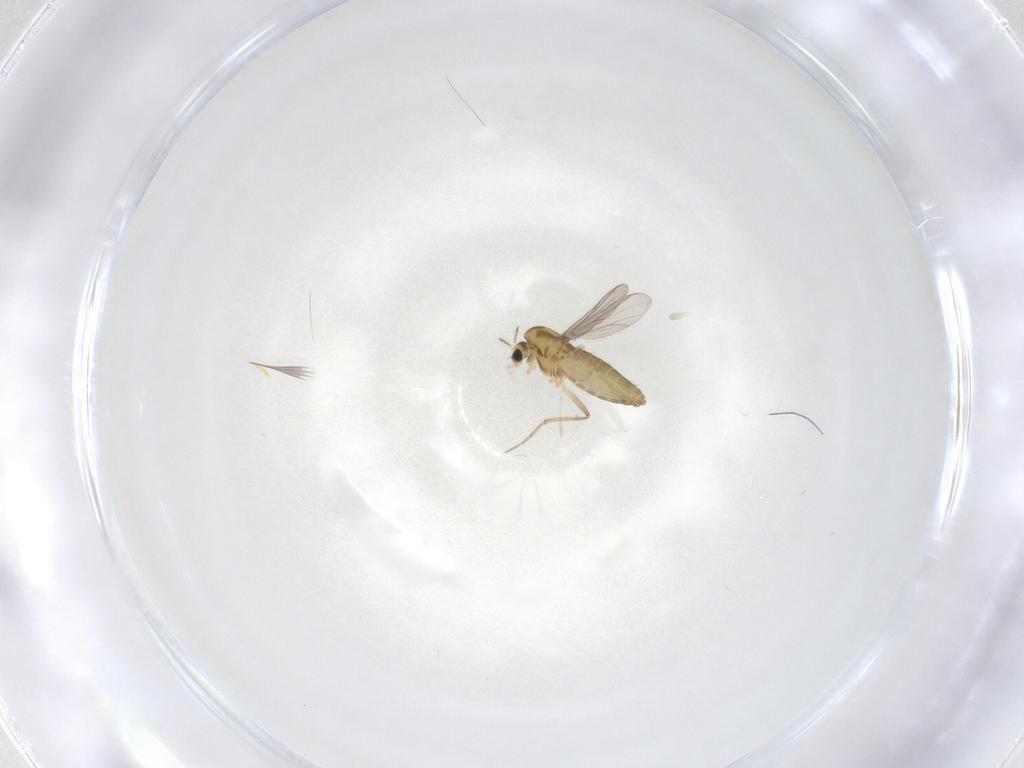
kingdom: Animalia
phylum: Arthropoda
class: Insecta
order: Diptera
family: Chironomidae
